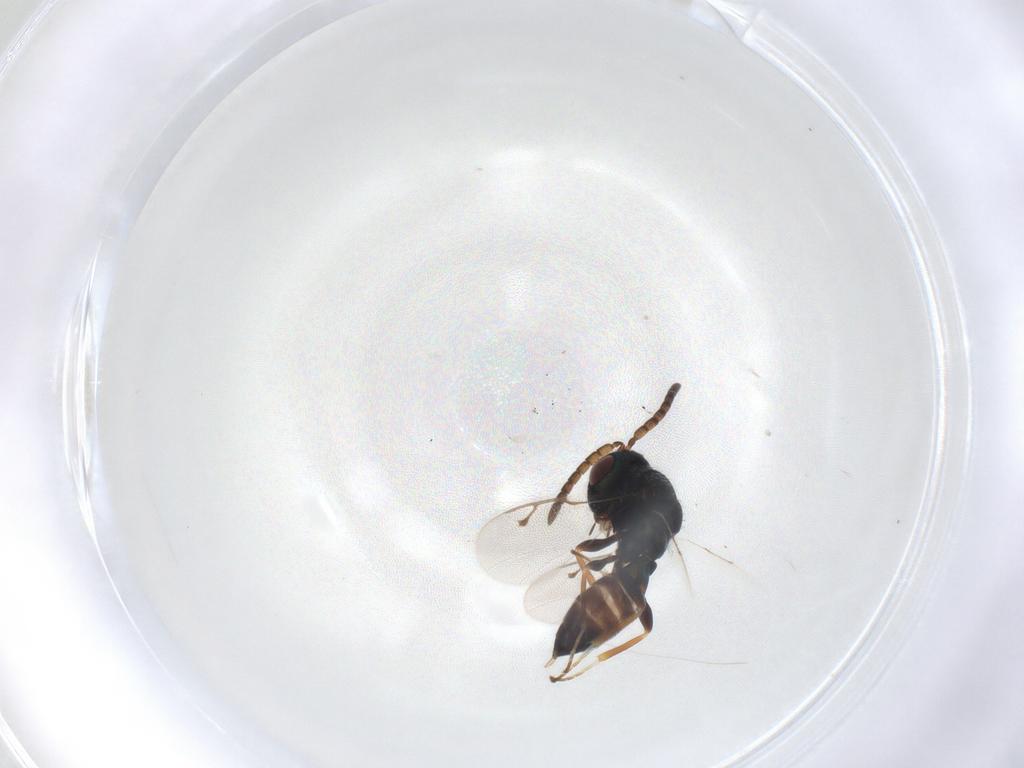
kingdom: Animalia
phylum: Arthropoda
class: Insecta
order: Hymenoptera
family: Pteromalidae
